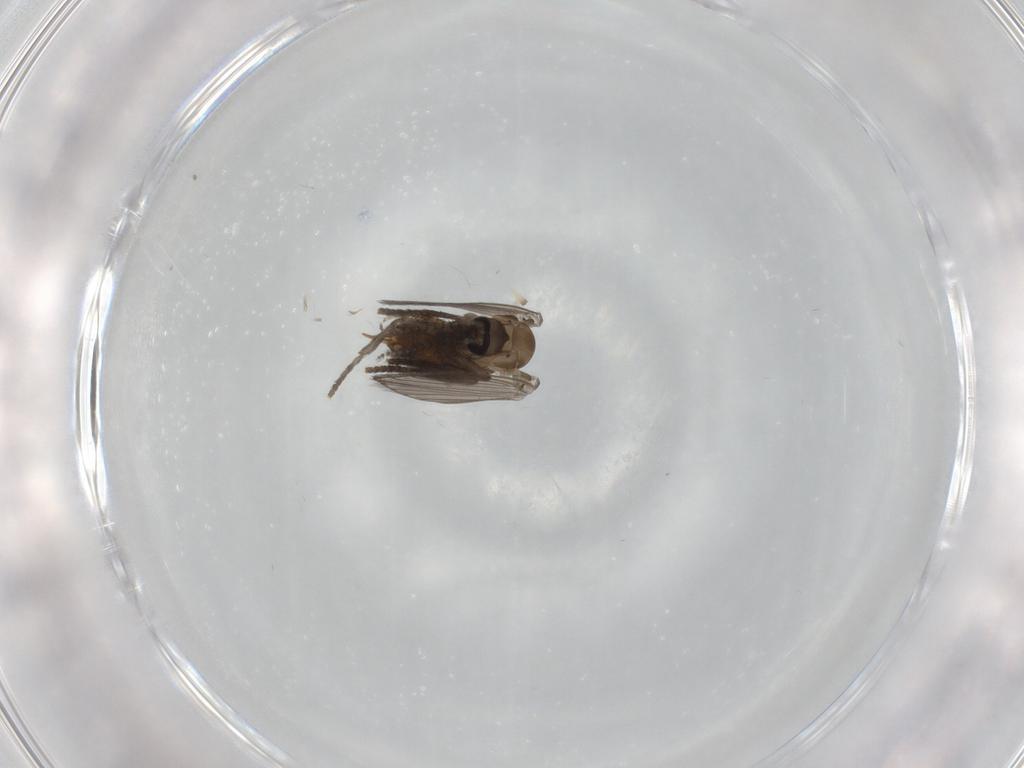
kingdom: Animalia
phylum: Arthropoda
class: Insecta
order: Diptera
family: Psychodidae
